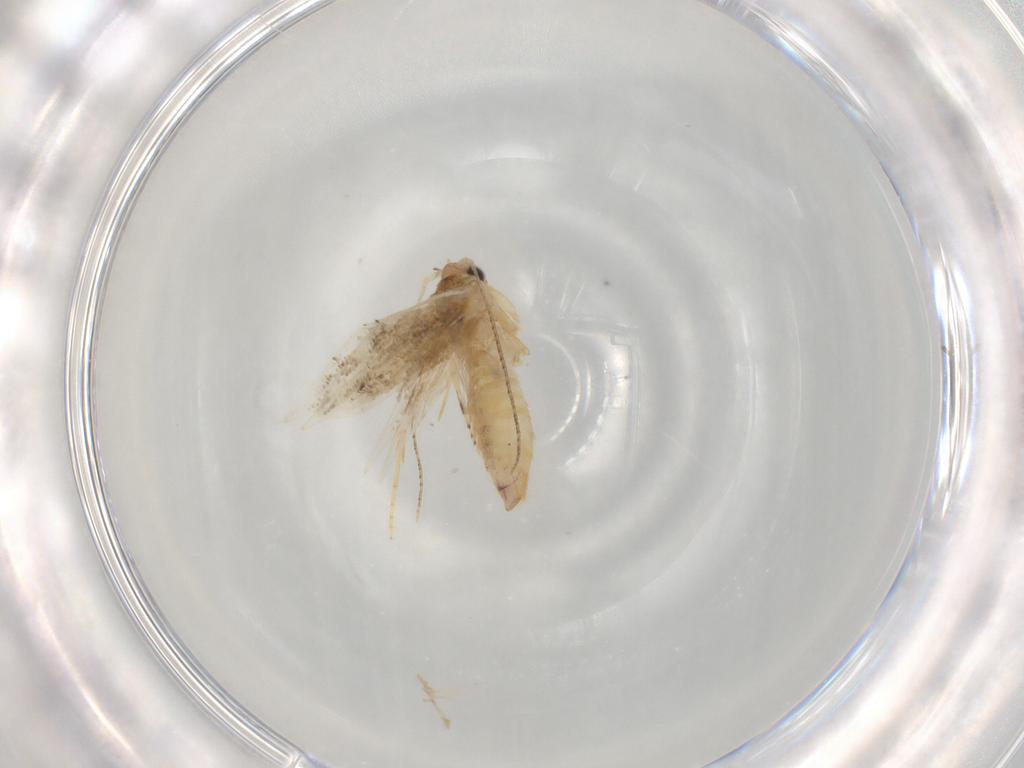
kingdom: Animalia
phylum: Arthropoda
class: Insecta
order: Lepidoptera
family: Bucculatricidae
